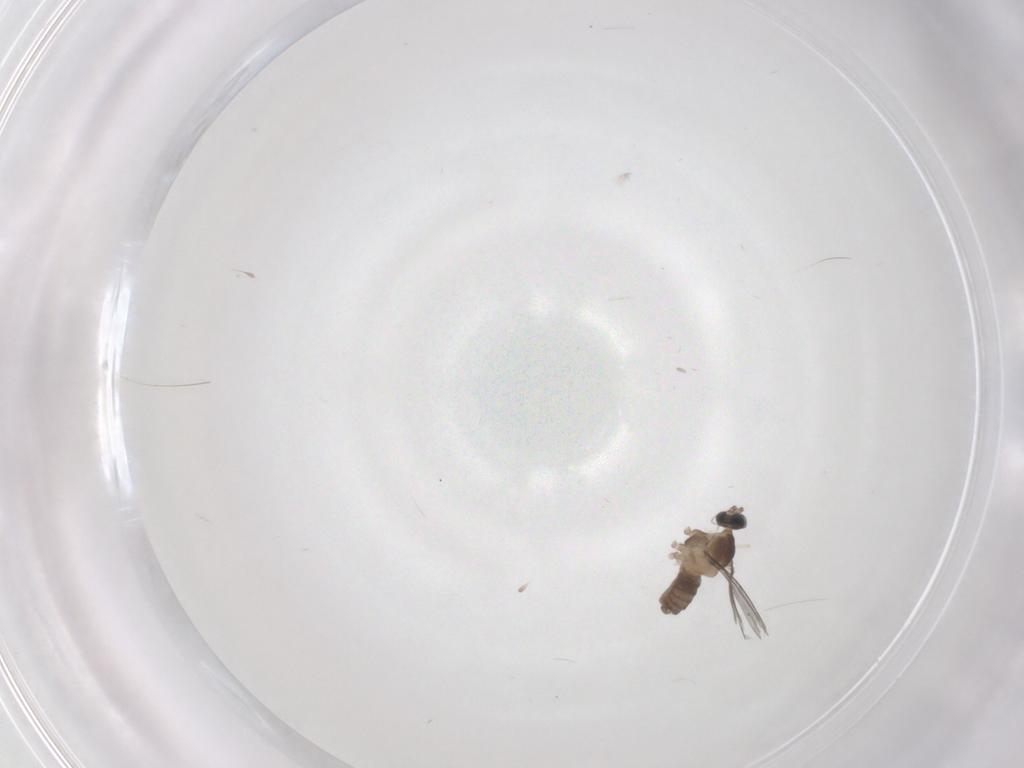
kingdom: Animalia
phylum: Arthropoda
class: Insecta
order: Diptera
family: Cecidomyiidae
